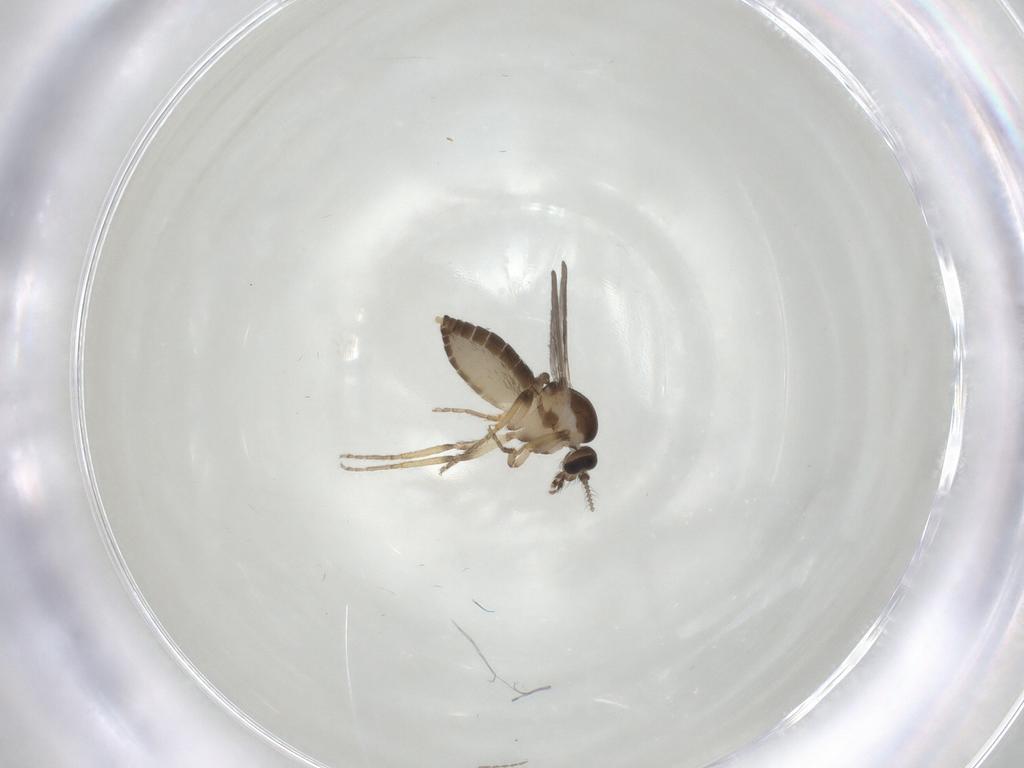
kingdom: Animalia
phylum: Arthropoda
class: Insecta
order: Diptera
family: Ceratopogonidae
